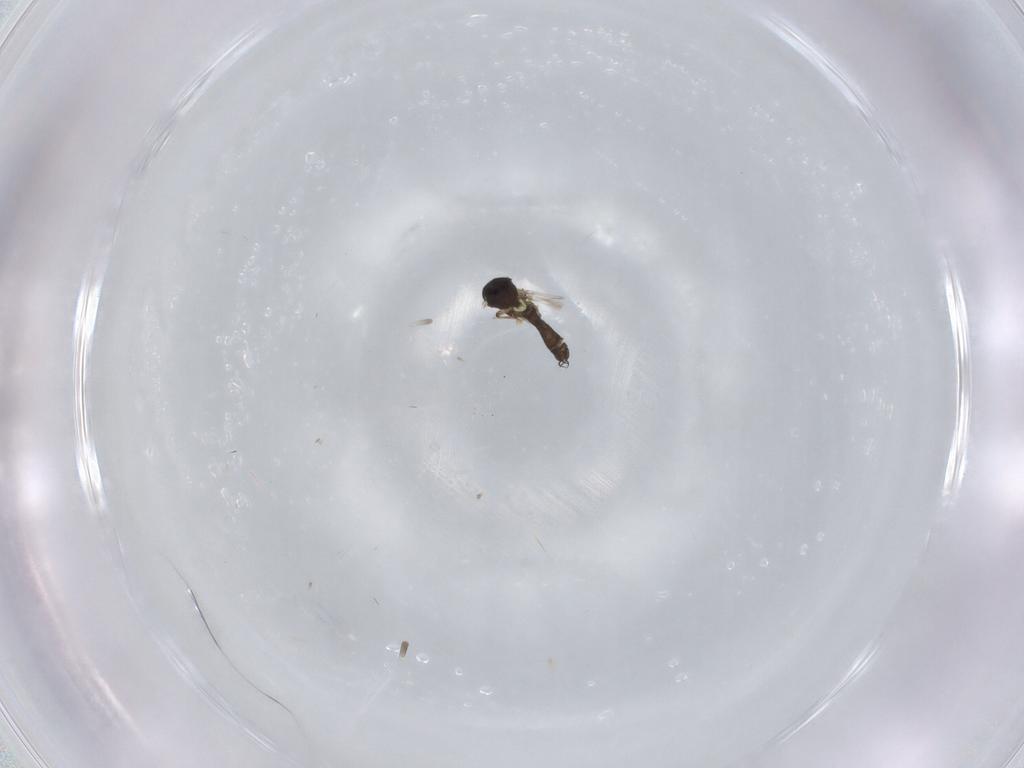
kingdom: Animalia
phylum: Arthropoda
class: Insecta
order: Diptera
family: Ceratopogonidae
